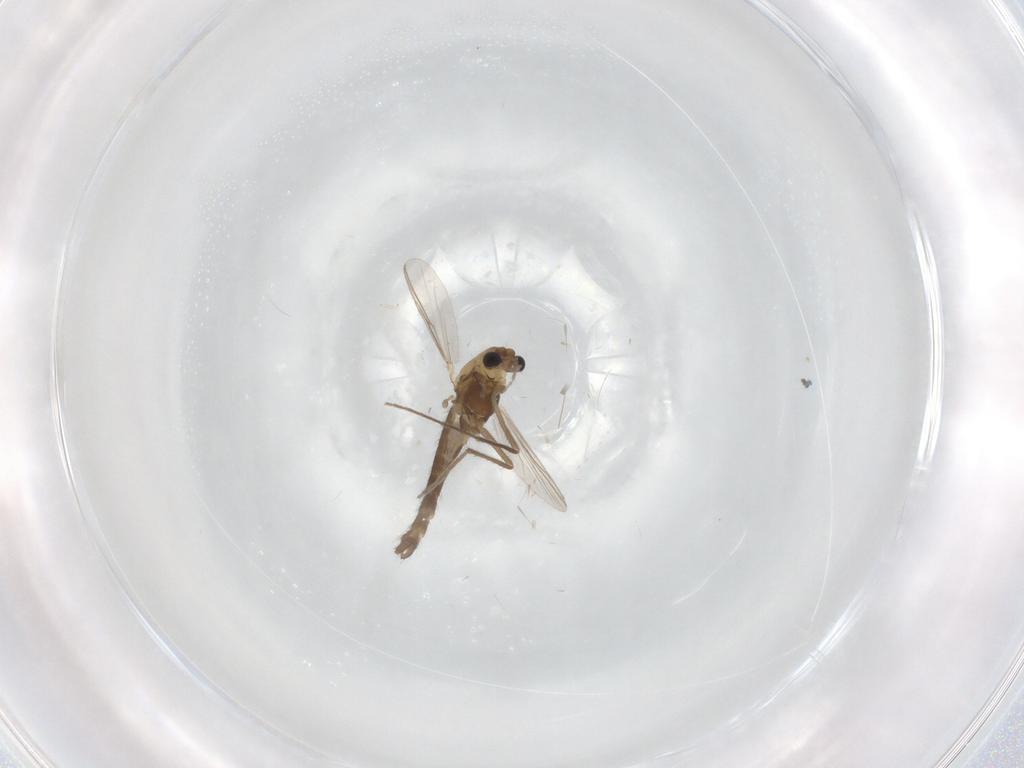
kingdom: Animalia
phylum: Arthropoda
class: Insecta
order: Diptera
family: Chironomidae
